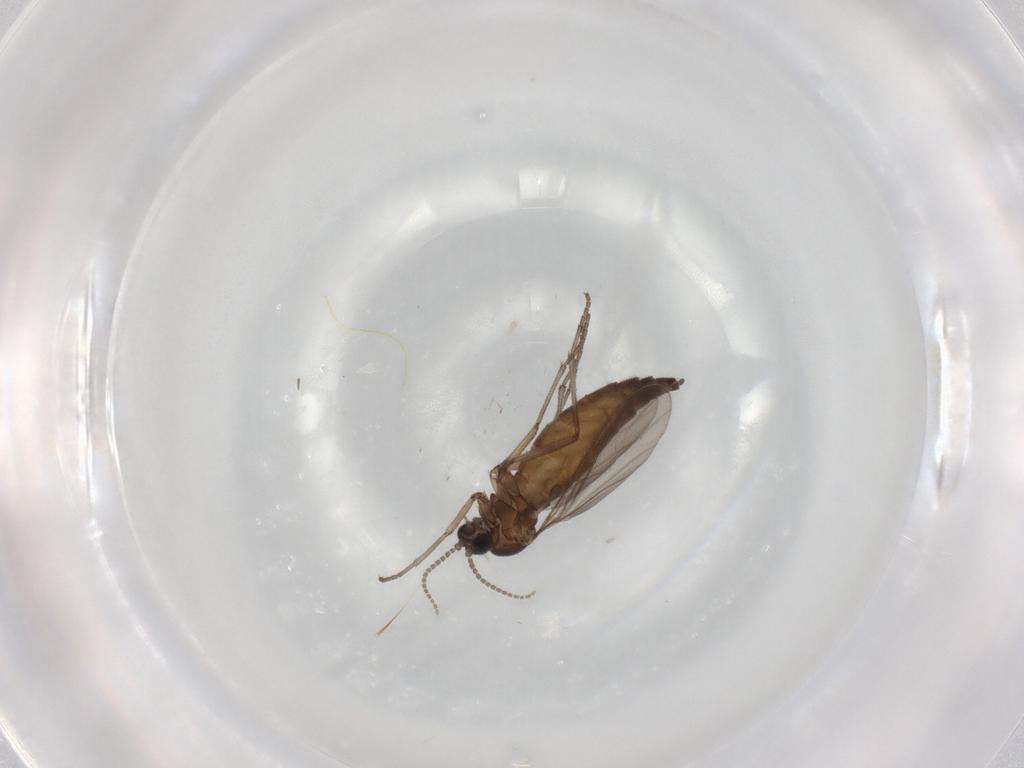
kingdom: Animalia
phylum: Arthropoda
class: Insecta
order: Diptera
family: Sciaridae
